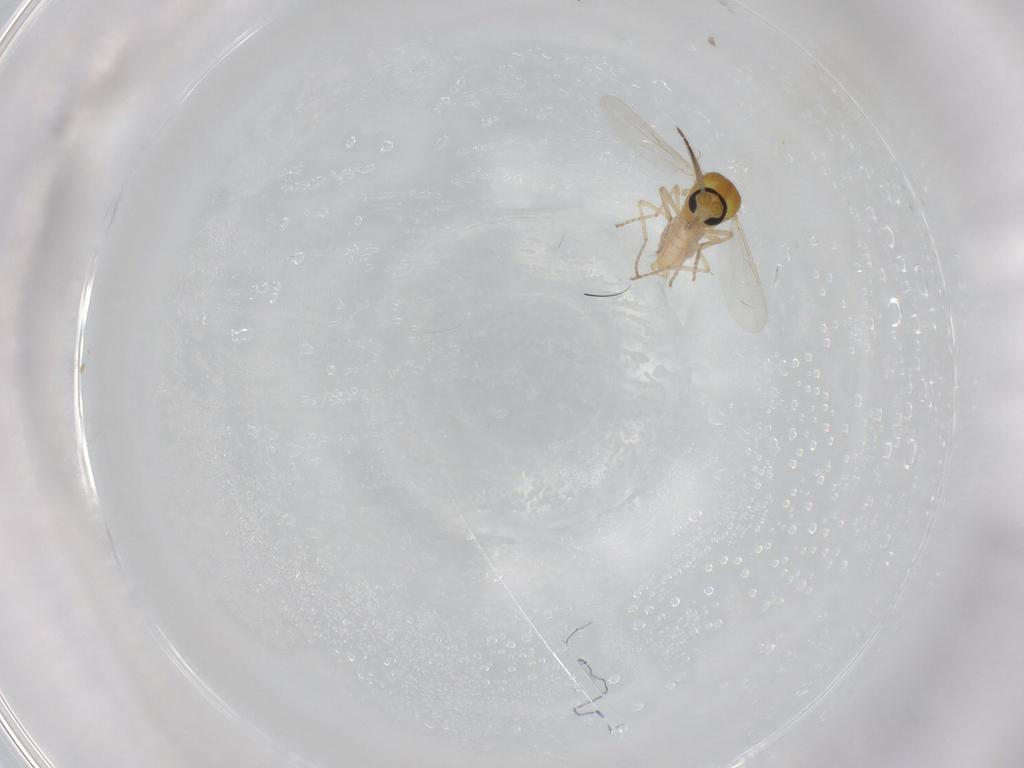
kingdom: Animalia
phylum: Arthropoda
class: Insecta
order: Diptera
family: Ceratopogonidae
